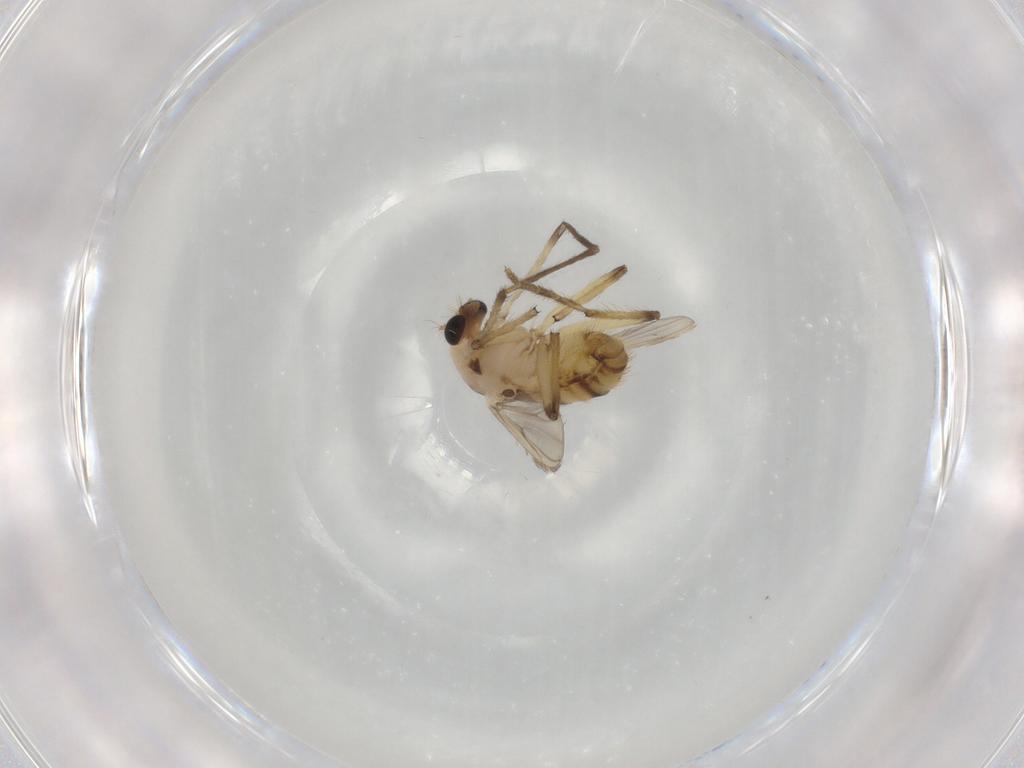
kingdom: Animalia
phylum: Arthropoda
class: Insecta
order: Diptera
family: Chironomidae
